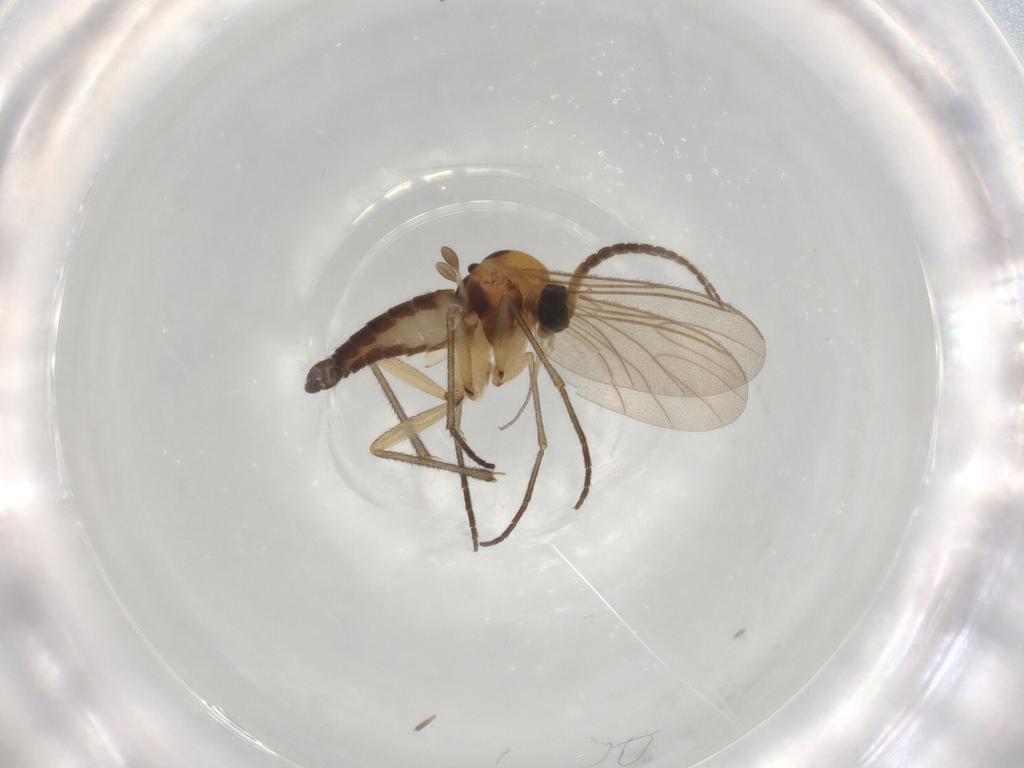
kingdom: Animalia
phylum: Arthropoda
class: Insecta
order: Diptera
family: Sciaridae
